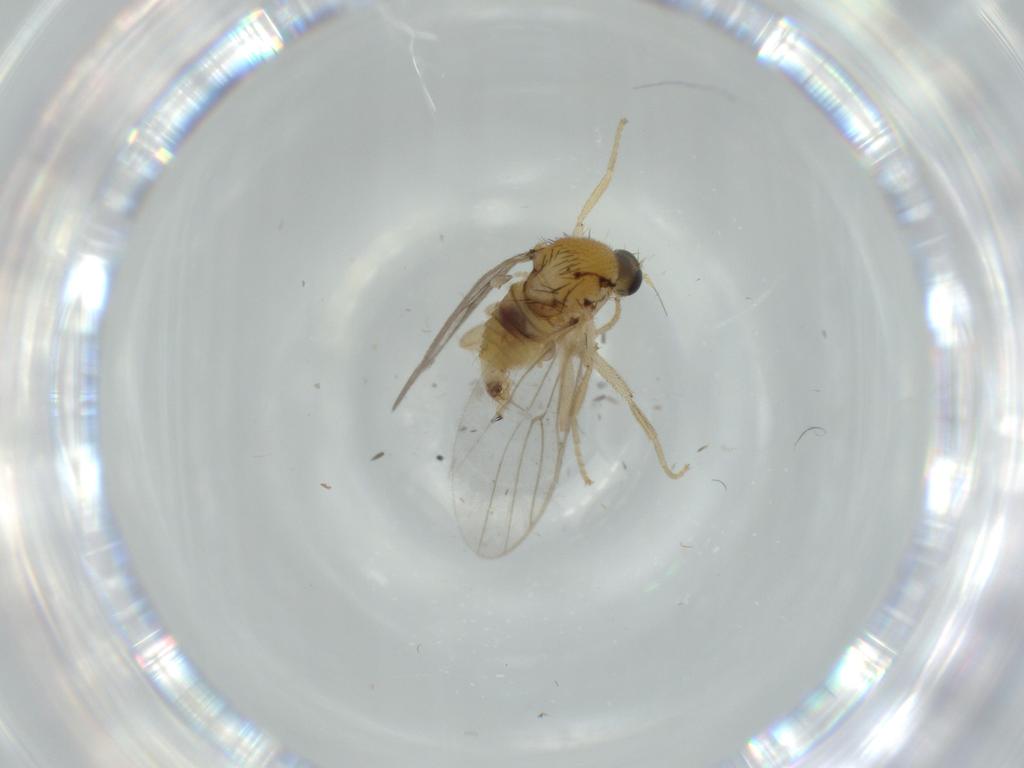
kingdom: Animalia
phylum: Arthropoda
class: Insecta
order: Diptera
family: Hybotidae
